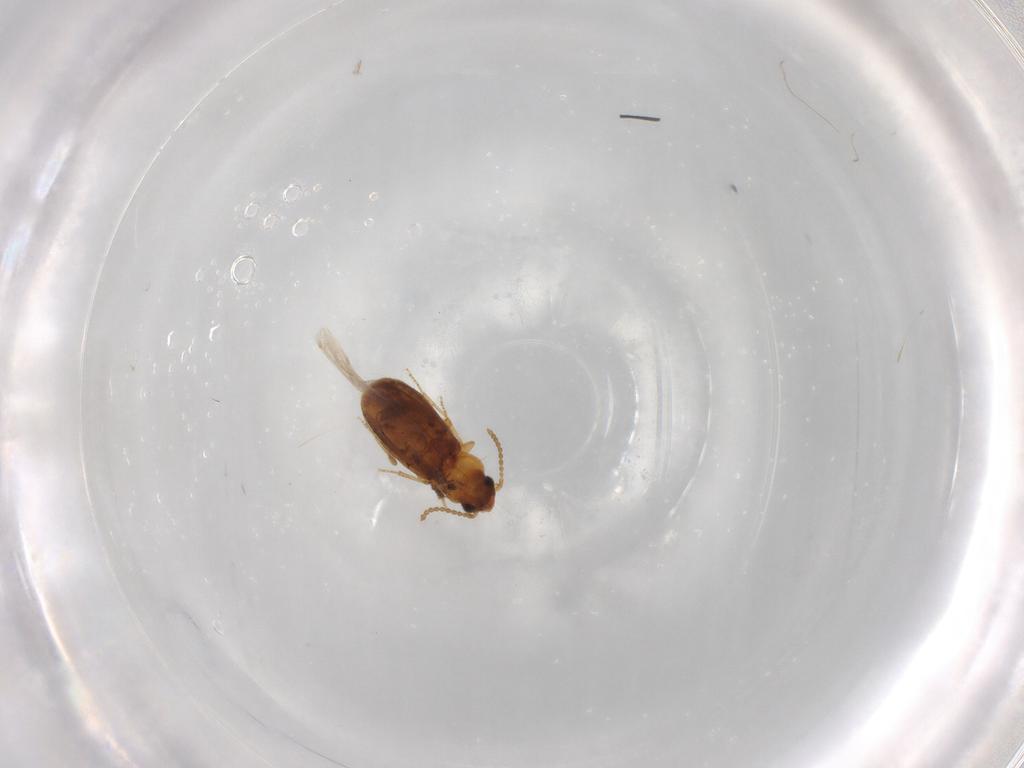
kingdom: Animalia
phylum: Arthropoda
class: Insecta
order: Coleoptera
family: Carabidae
